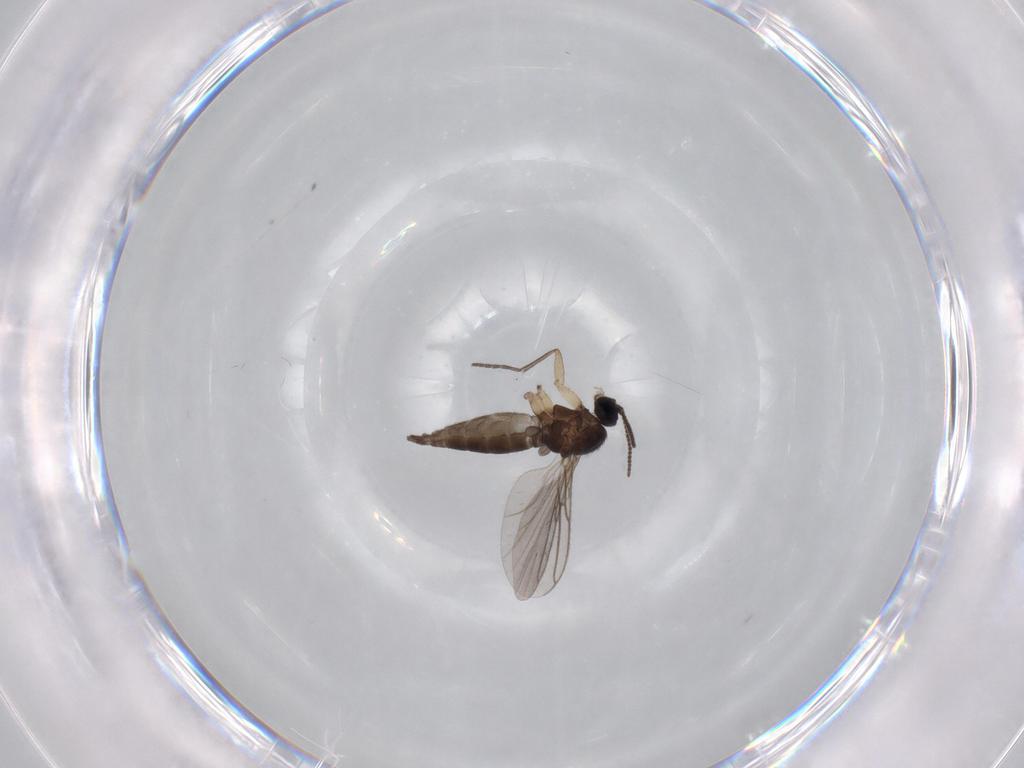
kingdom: Animalia
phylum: Arthropoda
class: Insecta
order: Diptera
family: Sciaridae
